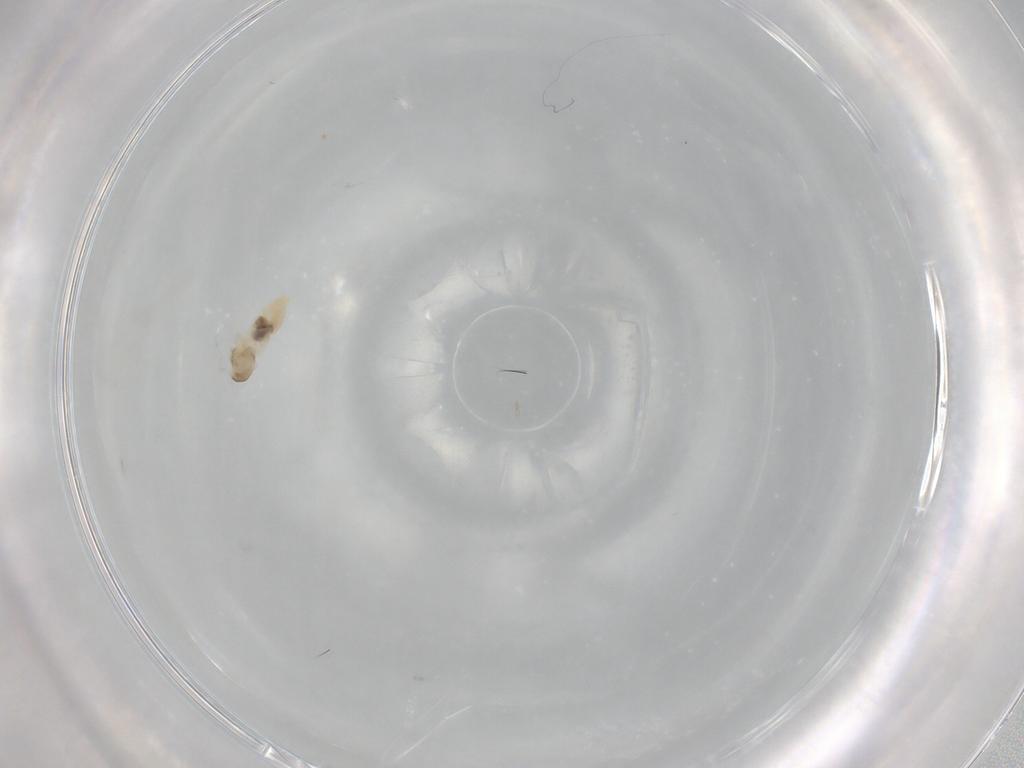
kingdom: Animalia
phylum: Arthropoda
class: Insecta
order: Diptera
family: Cecidomyiidae
